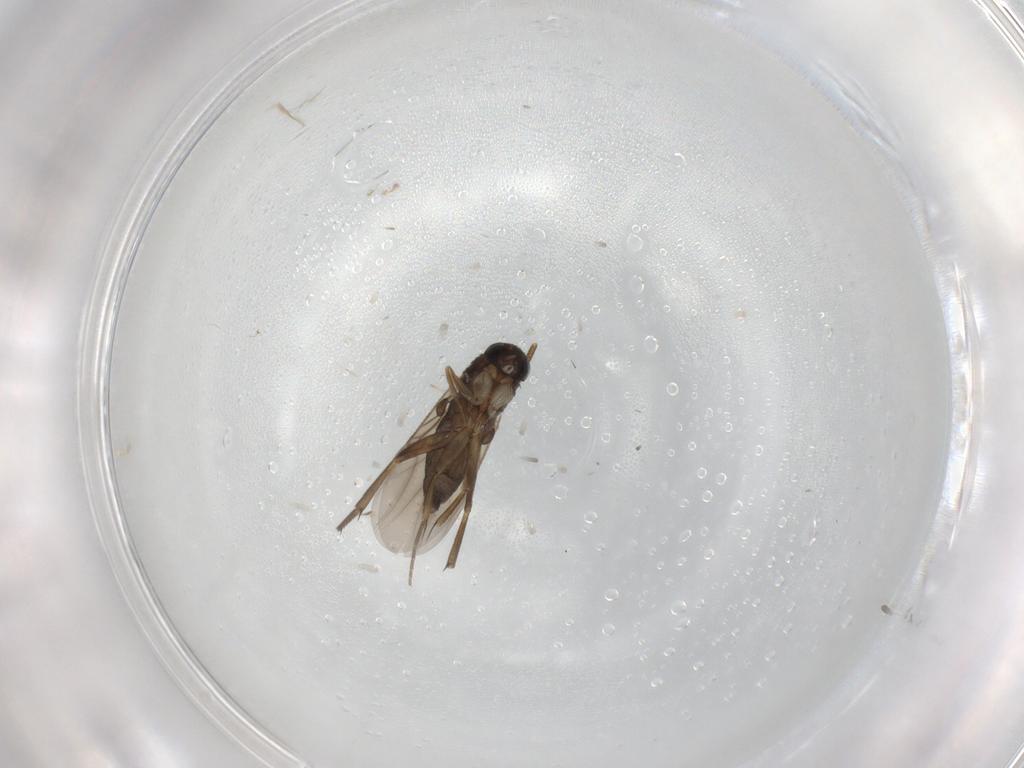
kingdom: Animalia
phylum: Arthropoda
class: Insecta
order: Diptera
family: Phoridae
